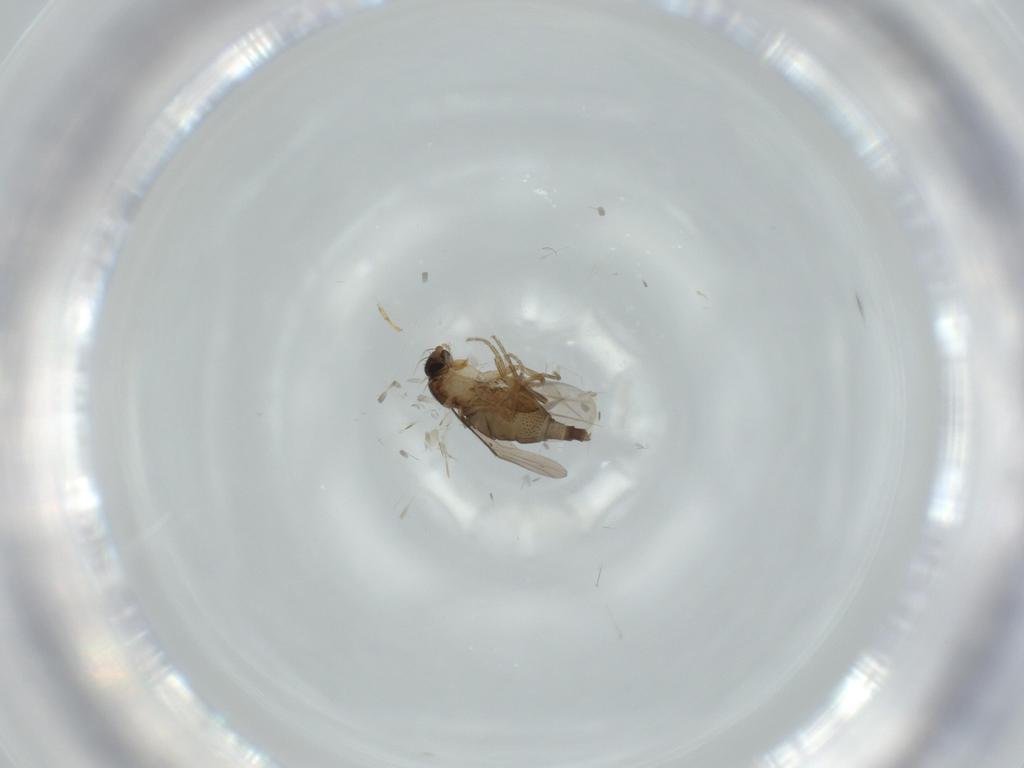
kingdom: Animalia
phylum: Arthropoda
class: Insecta
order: Diptera
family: Phoridae
